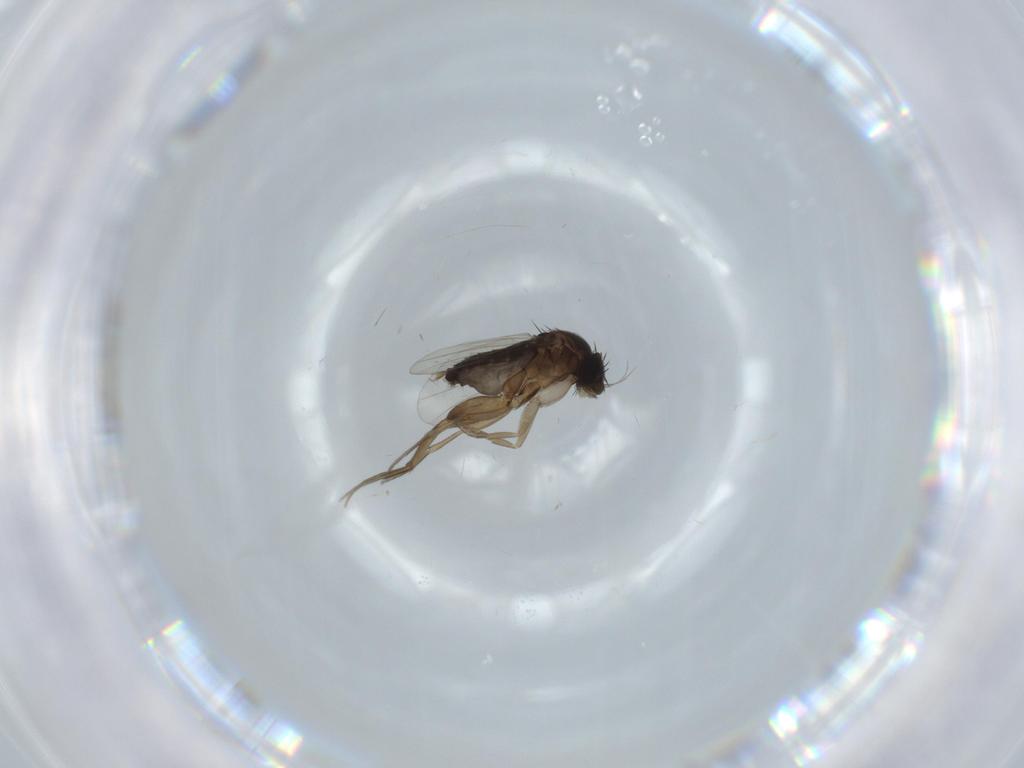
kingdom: Animalia
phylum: Arthropoda
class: Insecta
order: Diptera
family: Phoridae
